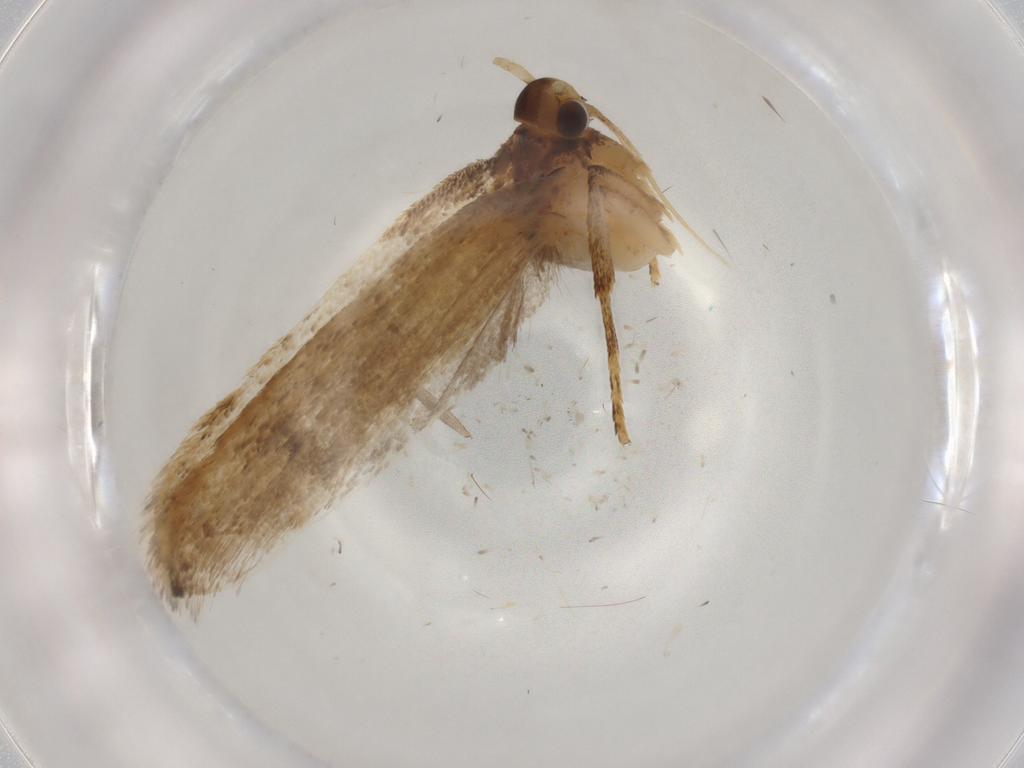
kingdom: Animalia
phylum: Arthropoda
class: Insecta
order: Lepidoptera
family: Lecithoceridae
